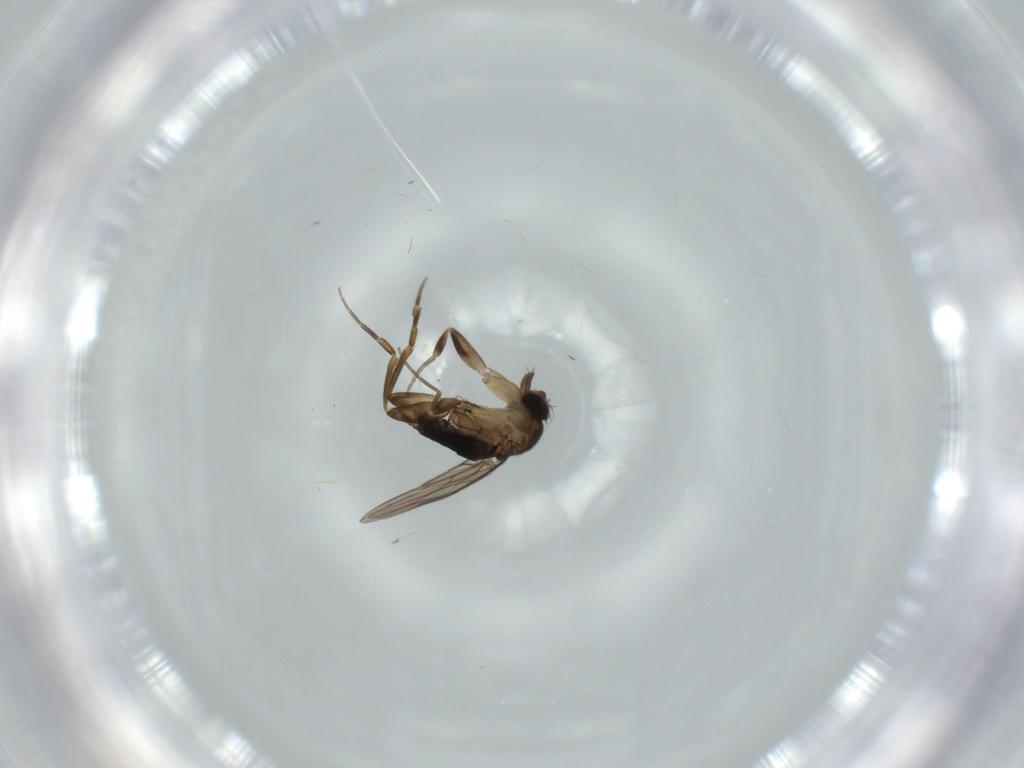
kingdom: Animalia
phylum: Arthropoda
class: Insecta
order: Diptera
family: Phoridae
